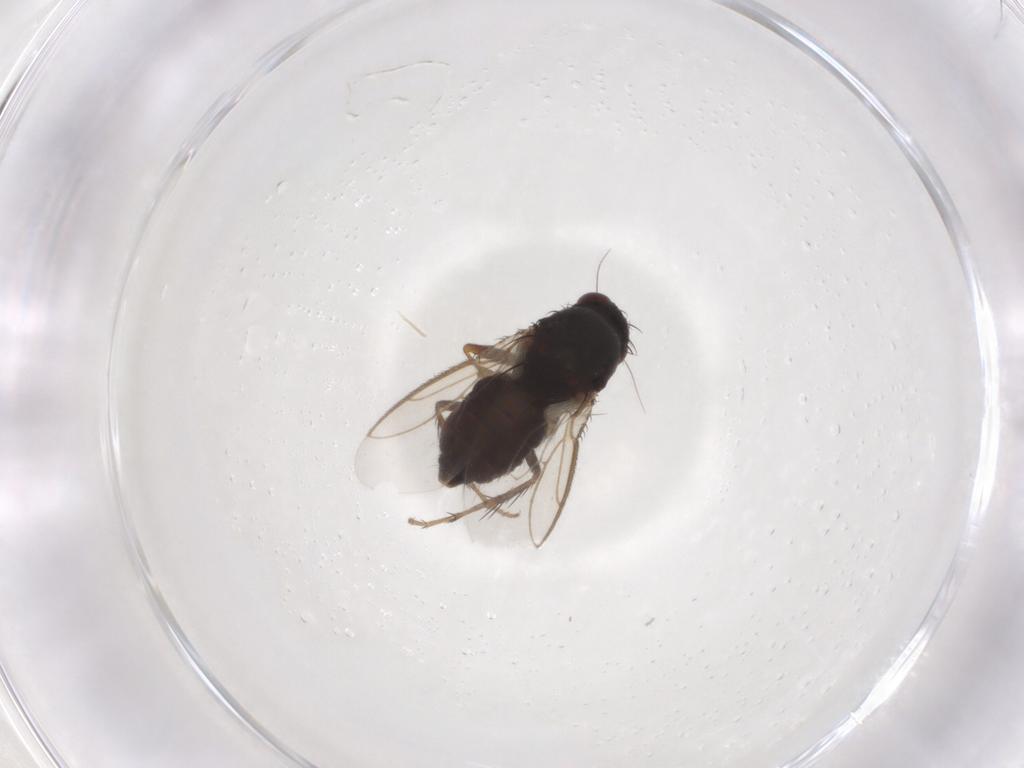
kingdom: Animalia
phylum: Arthropoda
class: Insecta
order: Diptera
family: Sphaeroceridae
